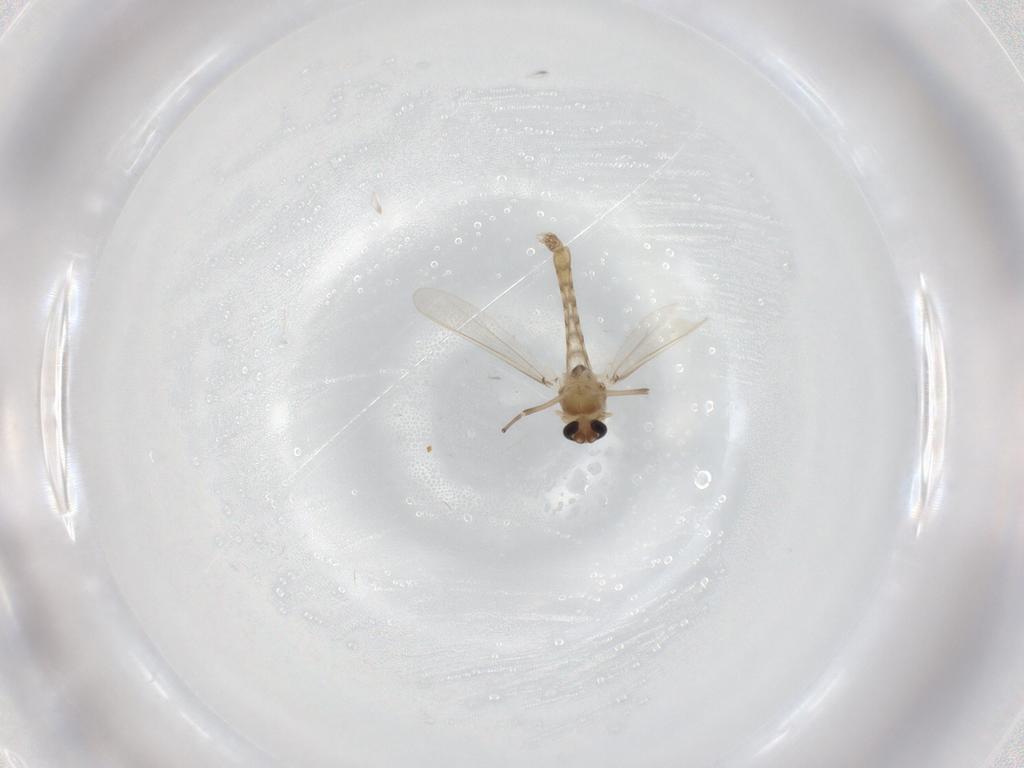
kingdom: Animalia
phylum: Arthropoda
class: Insecta
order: Diptera
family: Chironomidae
